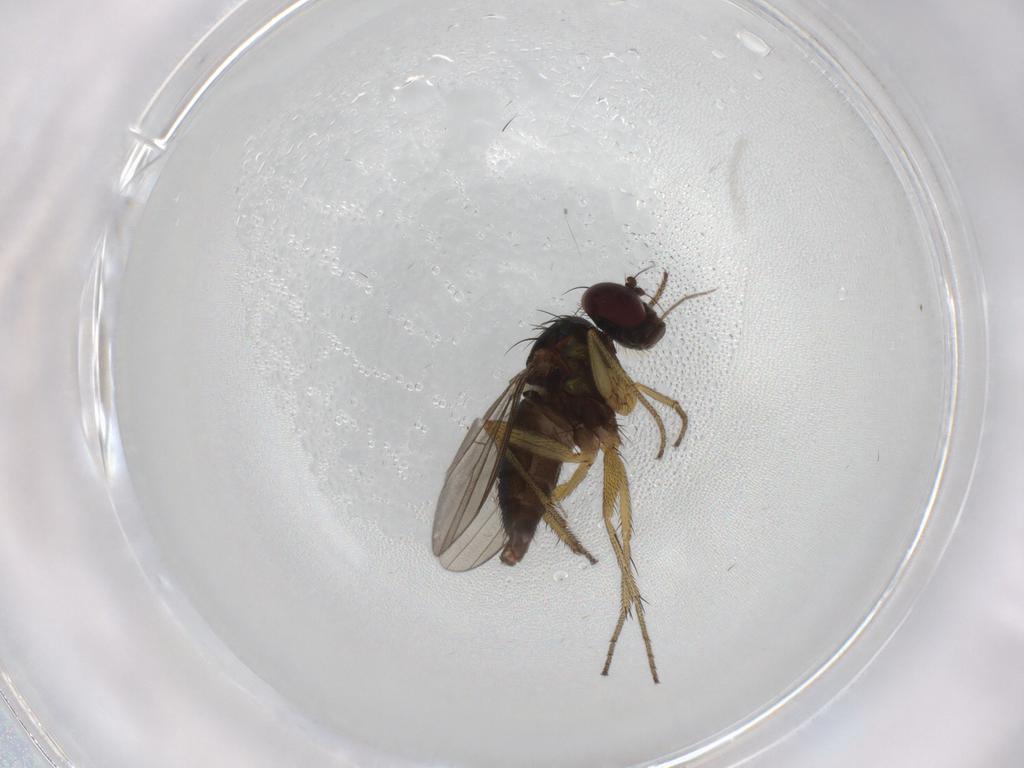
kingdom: Animalia
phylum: Arthropoda
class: Insecta
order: Diptera
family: Chironomidae
